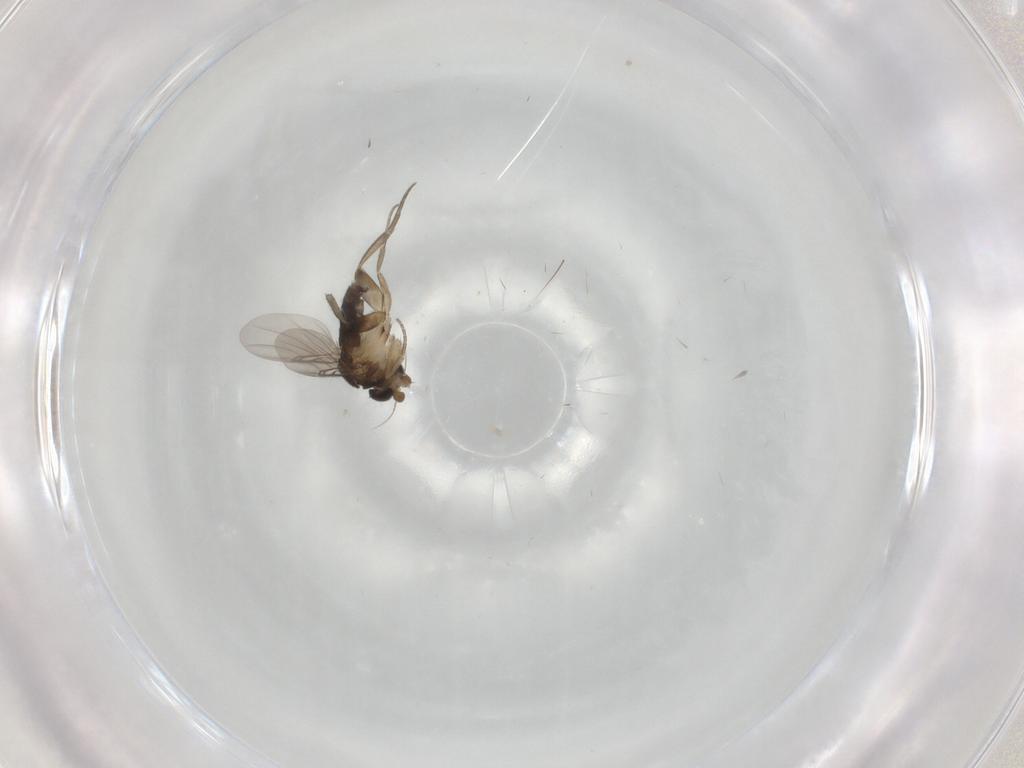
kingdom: Animalia
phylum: Arthropoda
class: Insecta
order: Diptera
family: Phoridae
